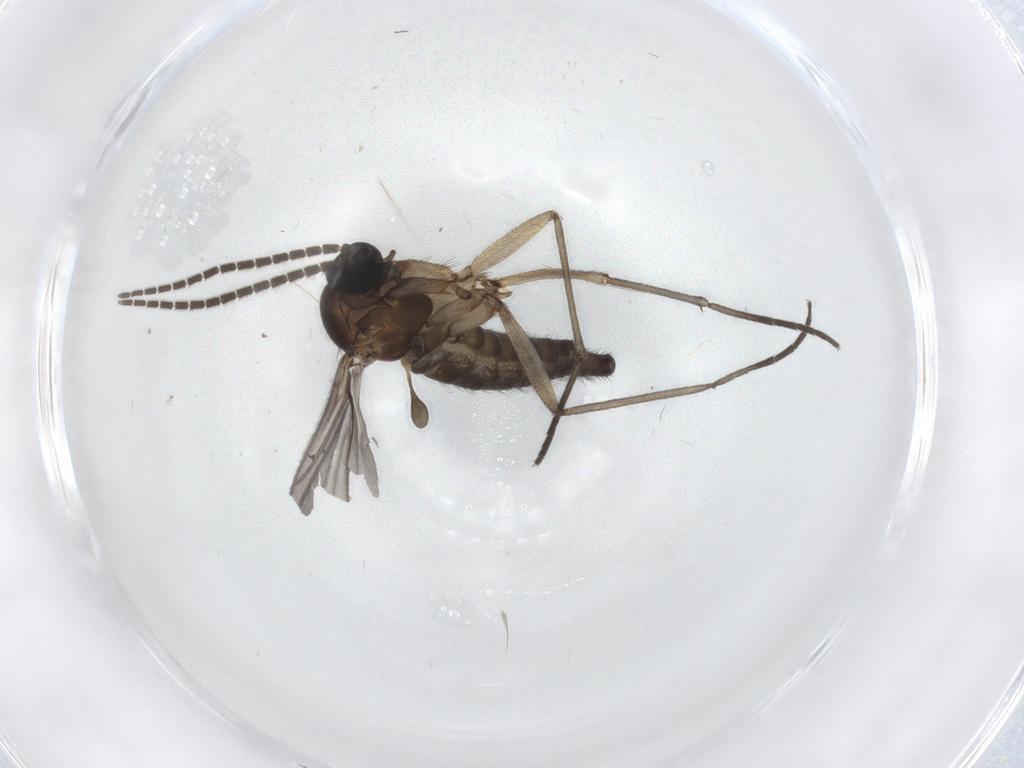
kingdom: Animalia
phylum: Arthropoda
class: Insecta
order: Diptera
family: Sciaridae
